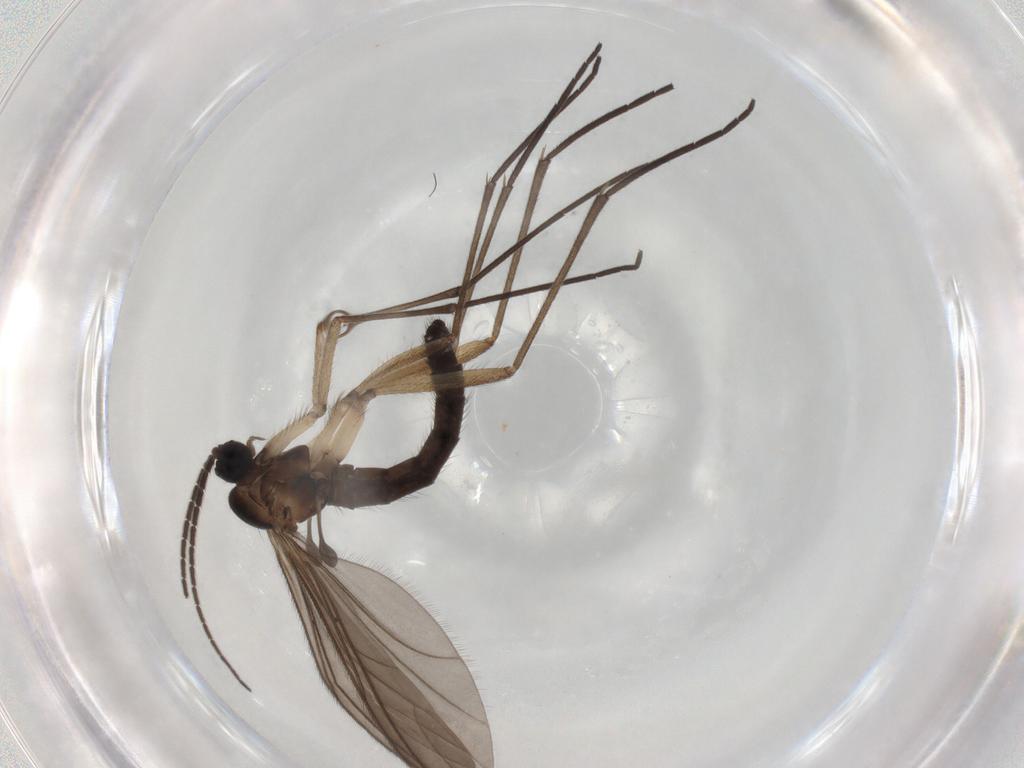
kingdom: Animalia
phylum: Arthropoda
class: Insecta
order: Diptera
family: Sciaridae
